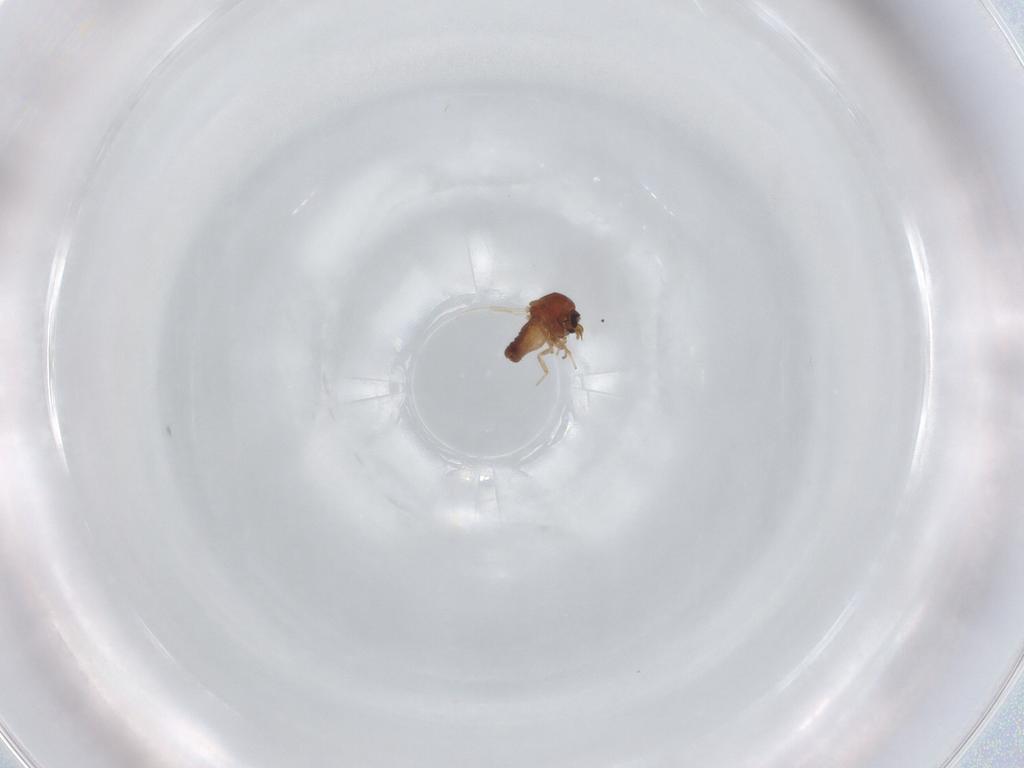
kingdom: Animalia
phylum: Arthropoda
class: Insecta
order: Diptera
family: Ceratopogonidae
